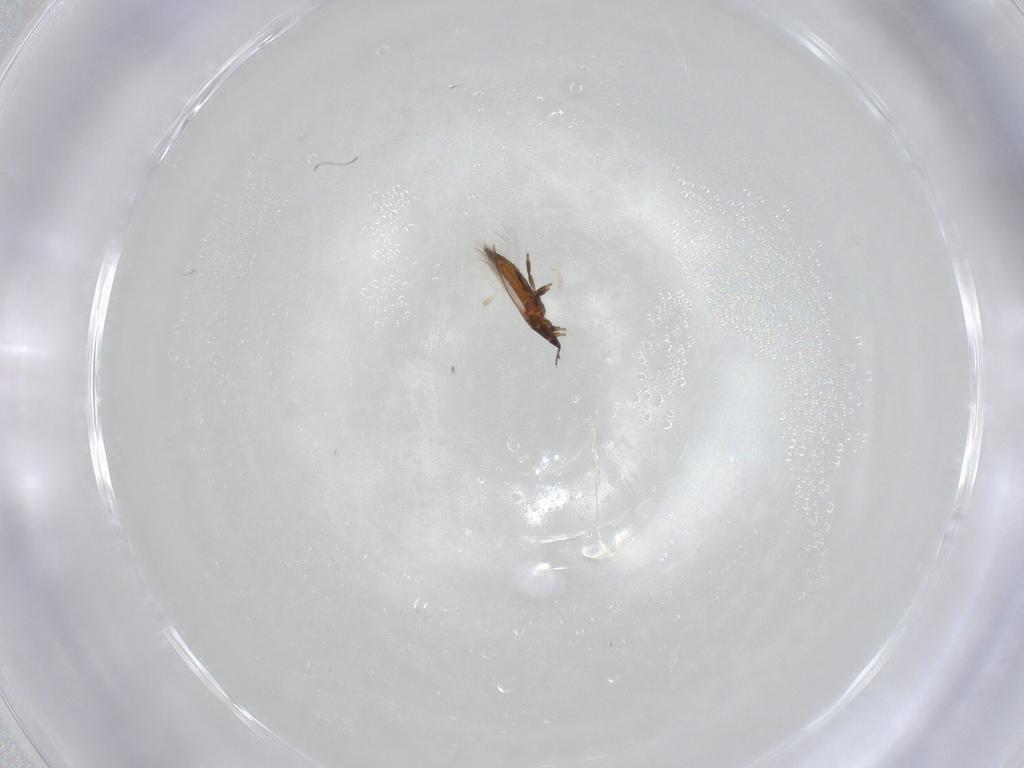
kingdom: Animalia
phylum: Arthropoda
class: Insecta
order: Thysanoptera
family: Thripidae
